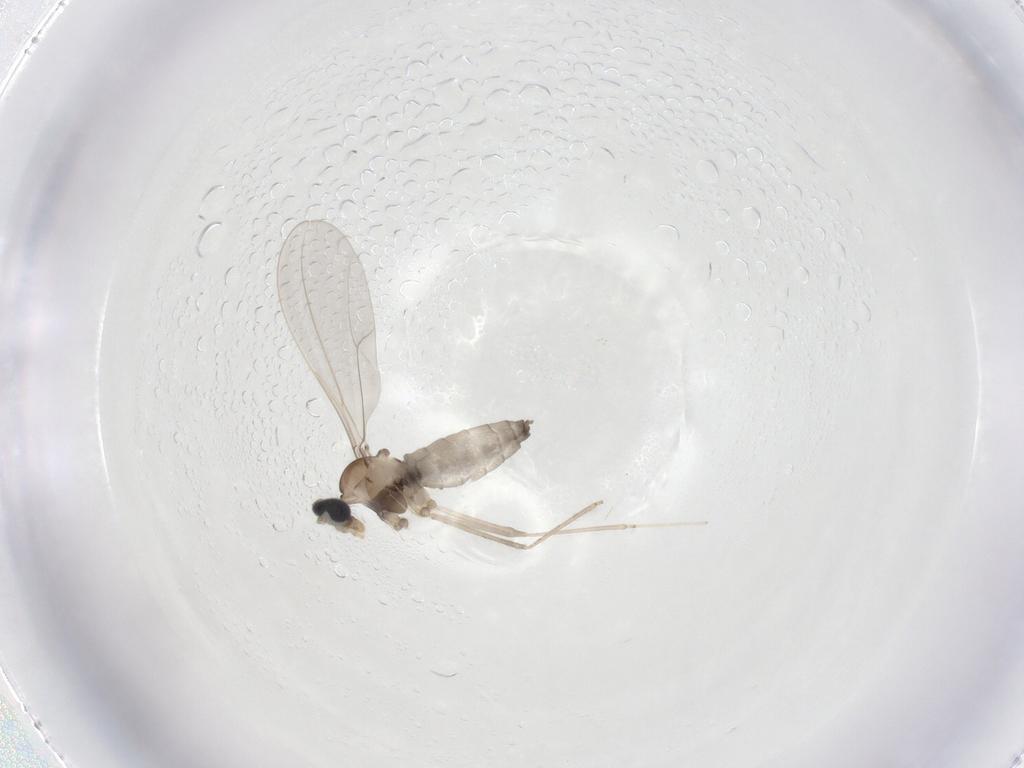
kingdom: Animalia
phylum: Arthropoda
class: Insecta
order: Diptera
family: Cecidomyiidae
